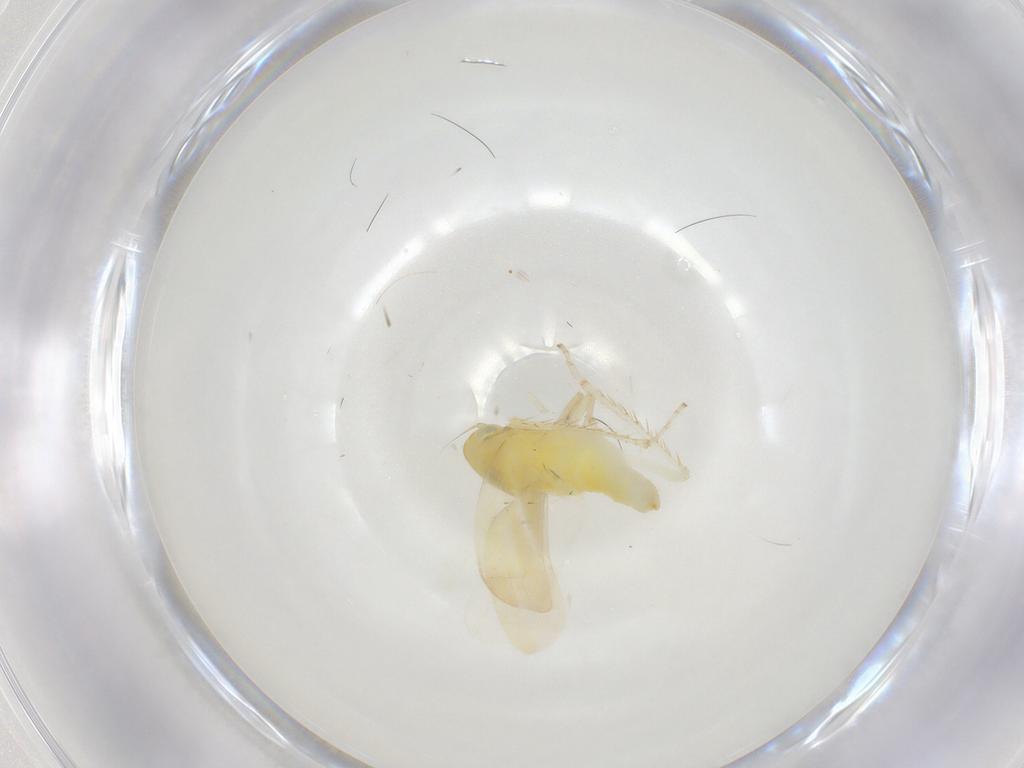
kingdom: Animalia
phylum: Arthropoda
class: Insecta
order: Hemiptera
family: Cicadellidae
